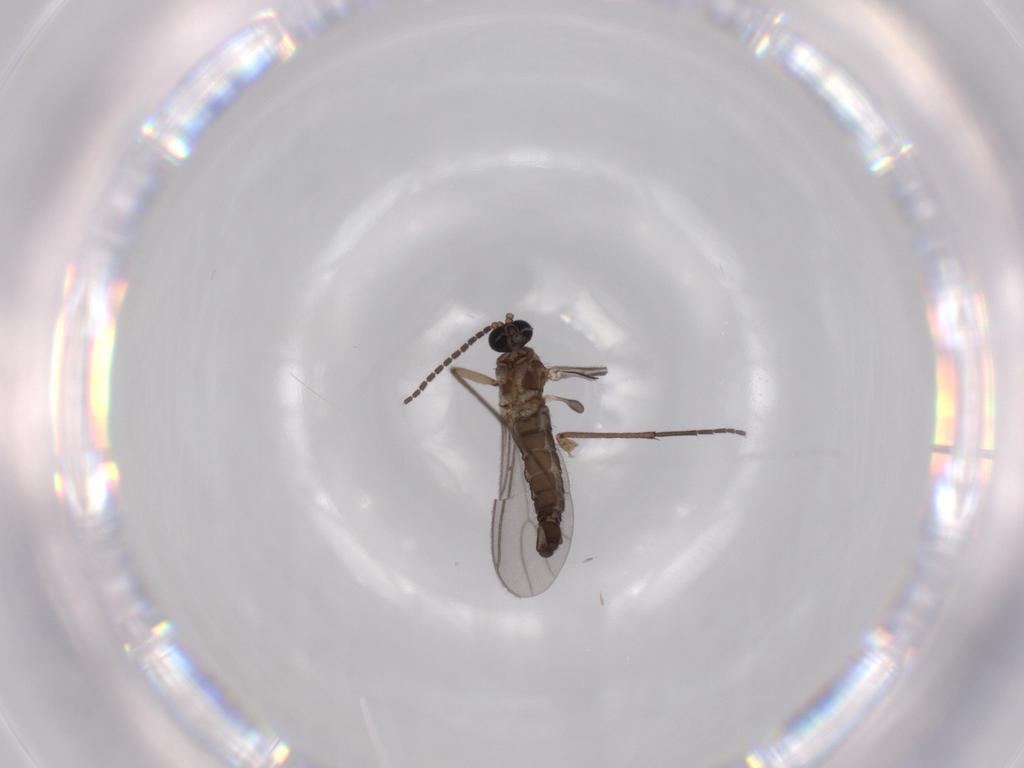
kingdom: Animalia
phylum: Arthropoda
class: Insecta
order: Diptera
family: Sciaridae
